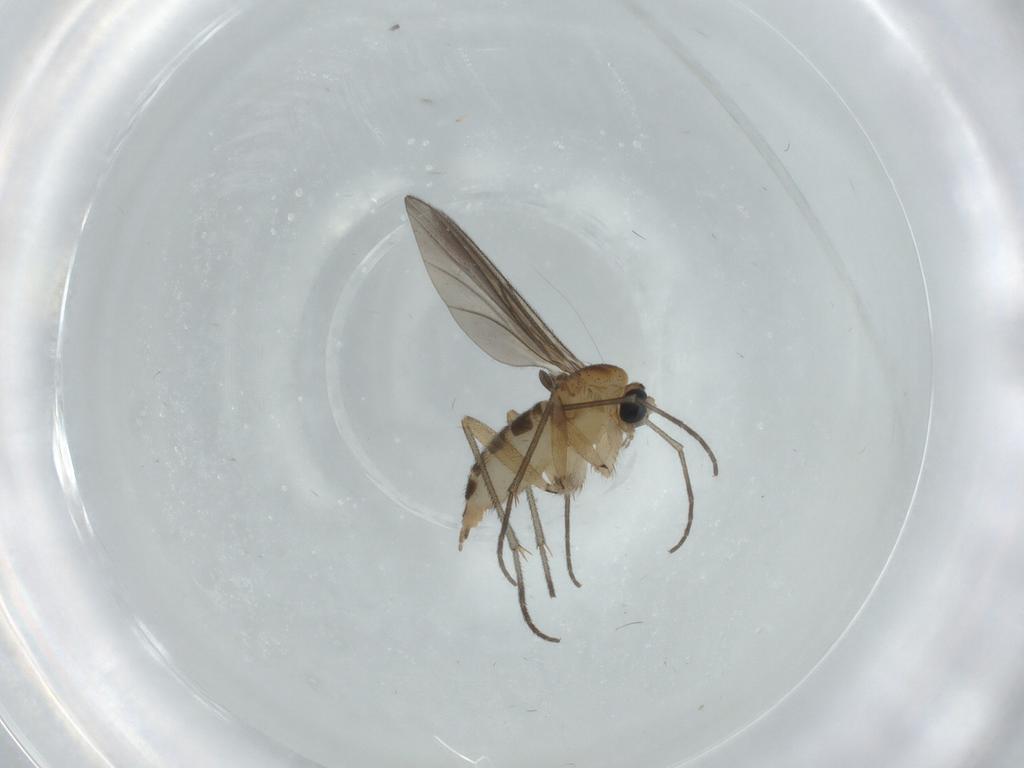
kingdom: Animalia
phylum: Arthropoda
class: Insecta
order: Diptera
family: Sciaridae
